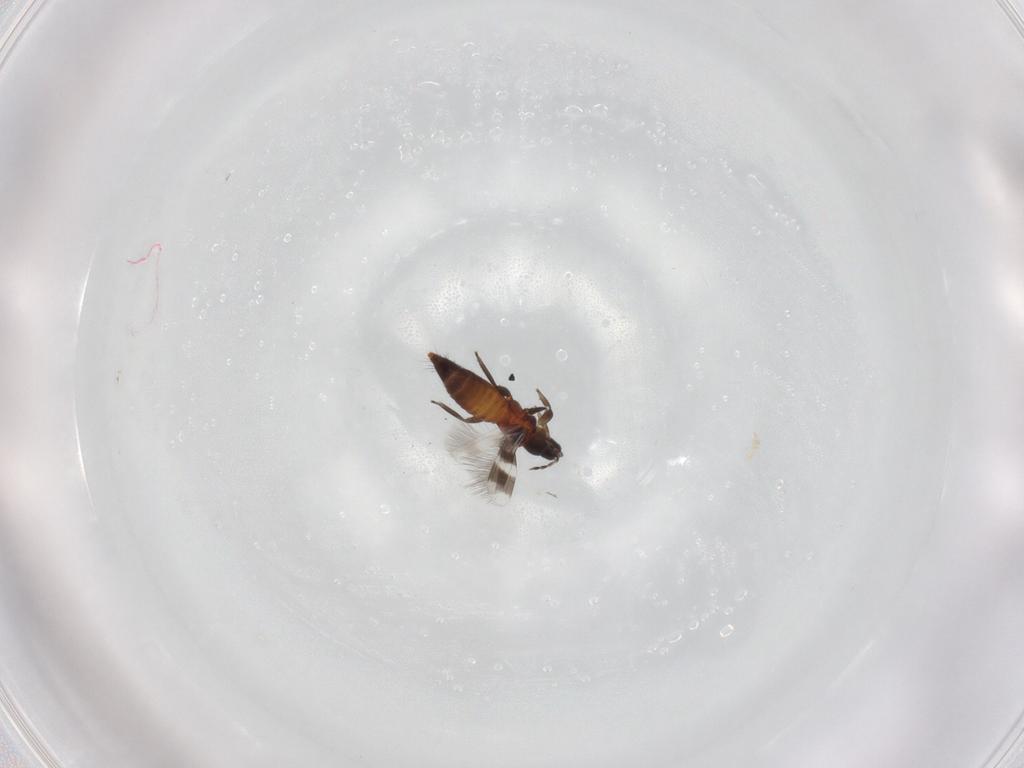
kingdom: Animalia
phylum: Arthropoda
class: Insecta
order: Thysanoptera
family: Aeolothripidae
